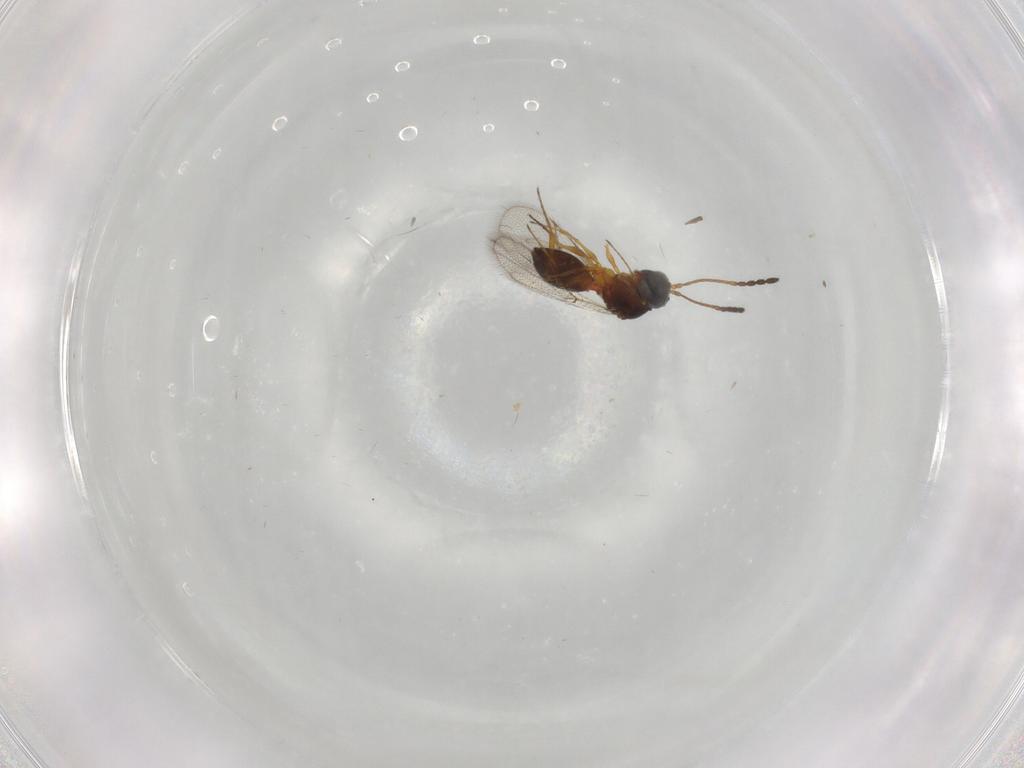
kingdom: Animalia
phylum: Arthropoda
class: Insecta
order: Hymenoptera
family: Figitidae
